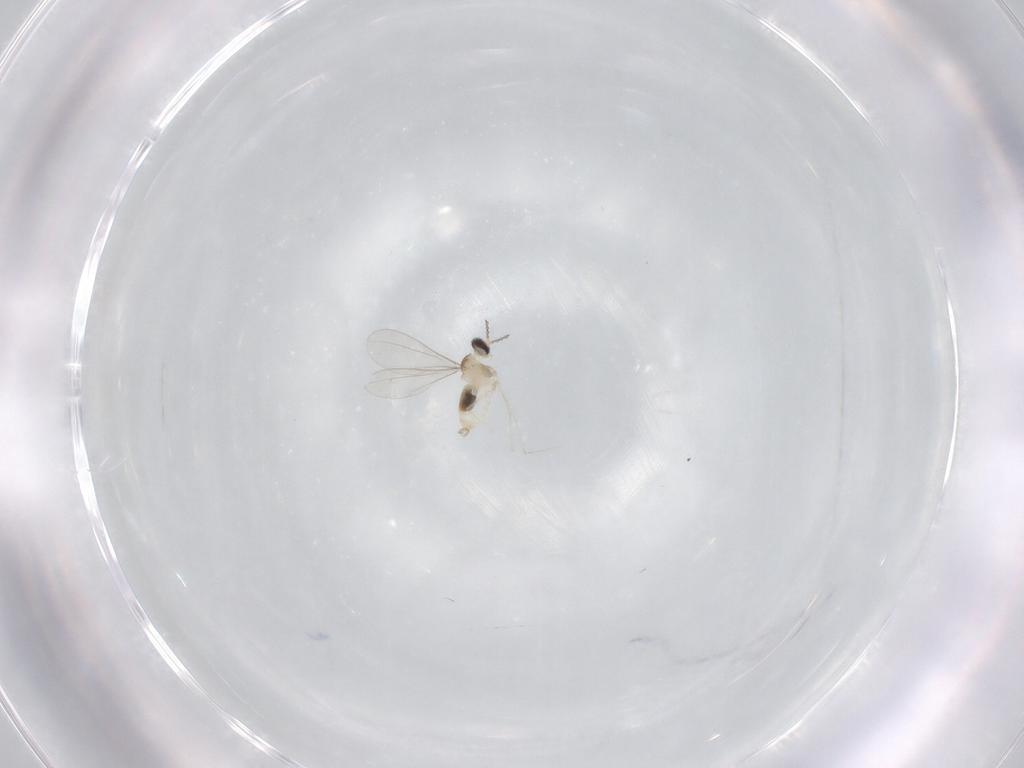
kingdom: Animalia
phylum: Arthropoda
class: Insecta
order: Diptera
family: Cecidomyiidae
